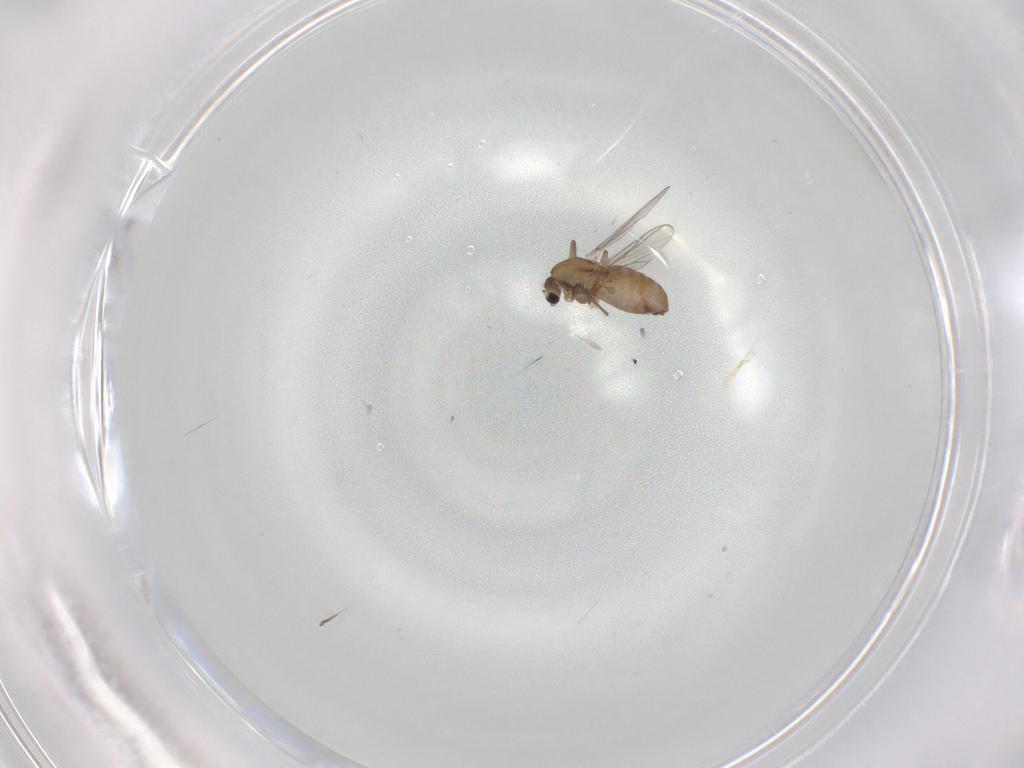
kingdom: Animalia
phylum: Arthropoda
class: Insecta
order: Diptera
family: Chironomidae
